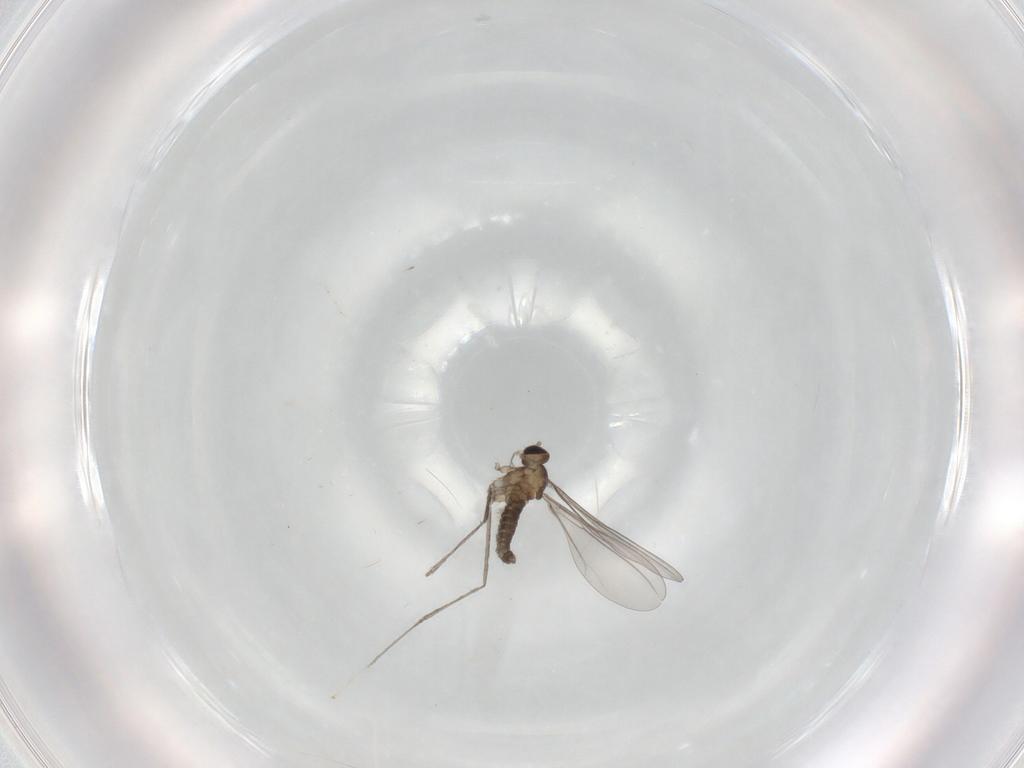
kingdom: Animalia
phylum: Arthropoda
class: Insecta
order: Diptera
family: Cecidomyiidae
